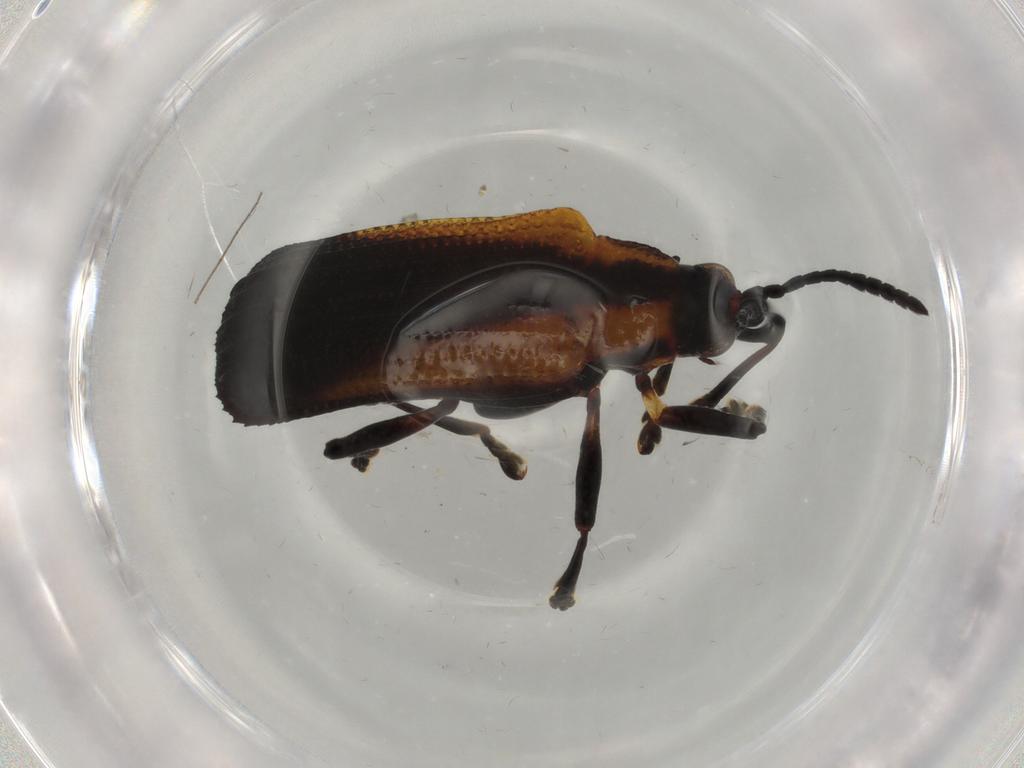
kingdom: Animalia
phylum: Arthropoda
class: Insecta
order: Coleoptera
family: Chrysomelidae
